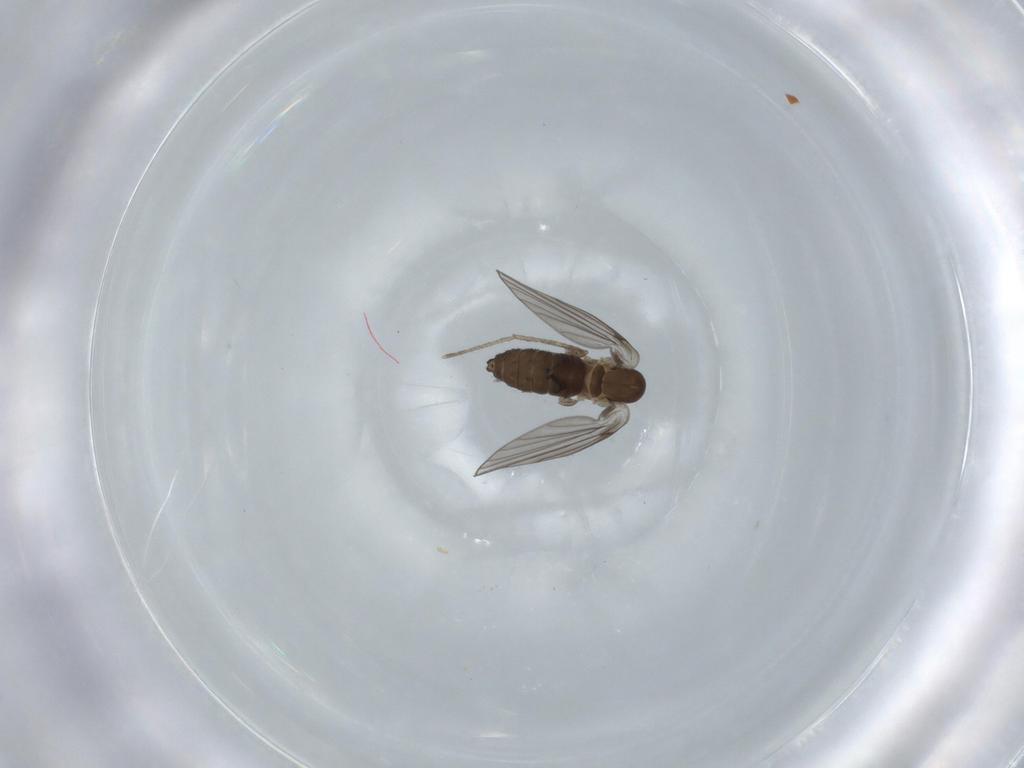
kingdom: Animalia
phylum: Arthropoda
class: Insecta
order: Diptera
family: Psychodidae
